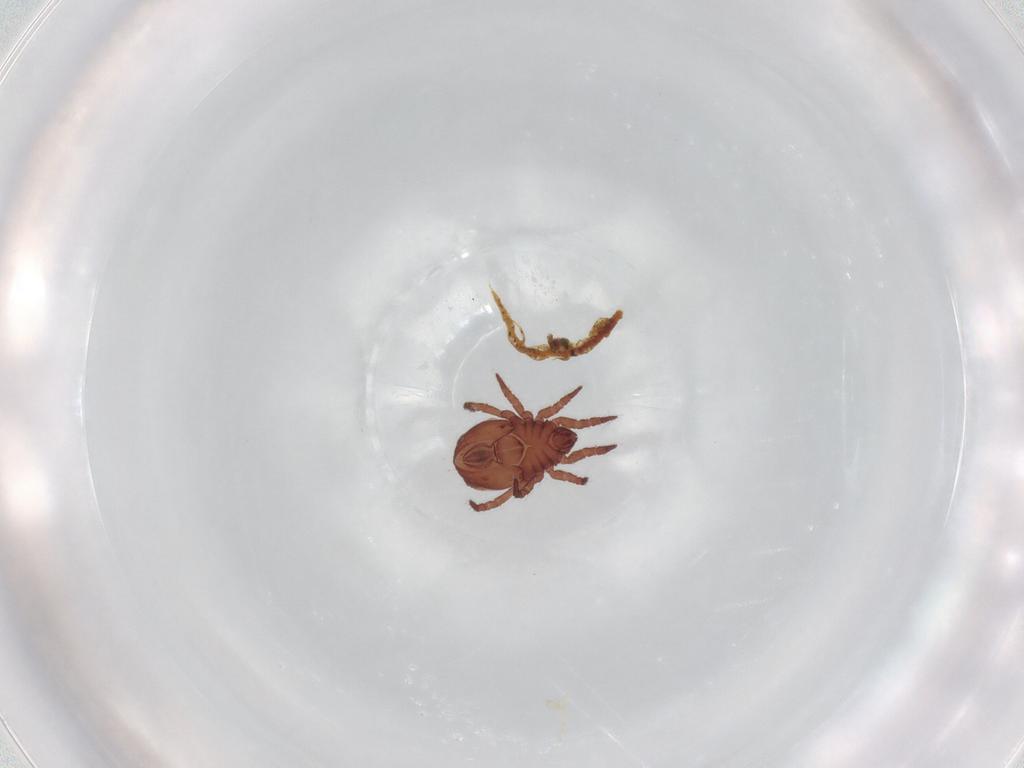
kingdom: Animalia
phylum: Arthropoda
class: Arachnida
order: Sarcoptiformes
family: Nothridae
